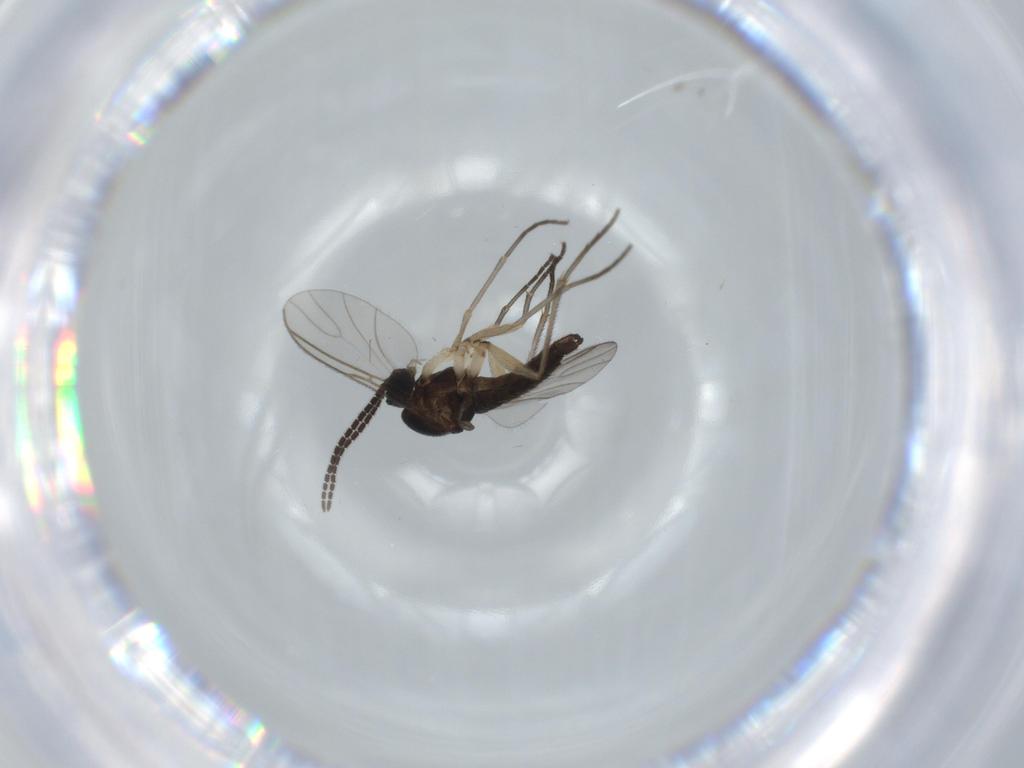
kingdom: Animalia
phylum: Arthropoda
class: Insecta
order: Diptera
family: Sciaridae
